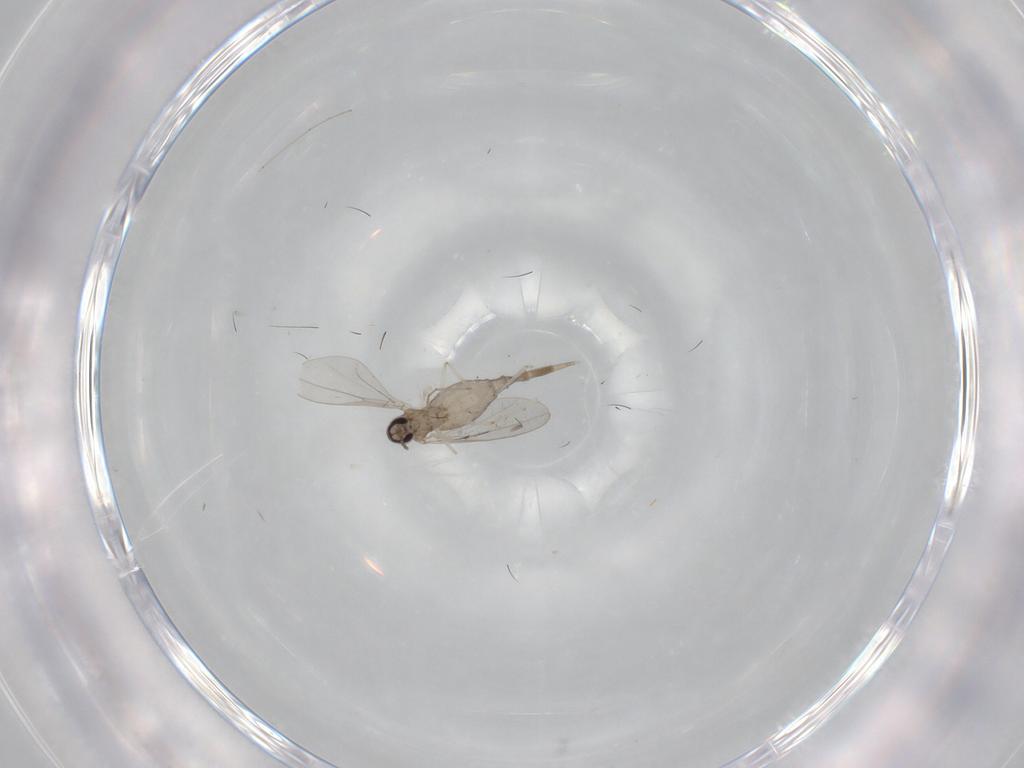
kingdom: Animalia
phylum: Arthropoda
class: Insecta
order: Diptera
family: Cecidomyiidae
